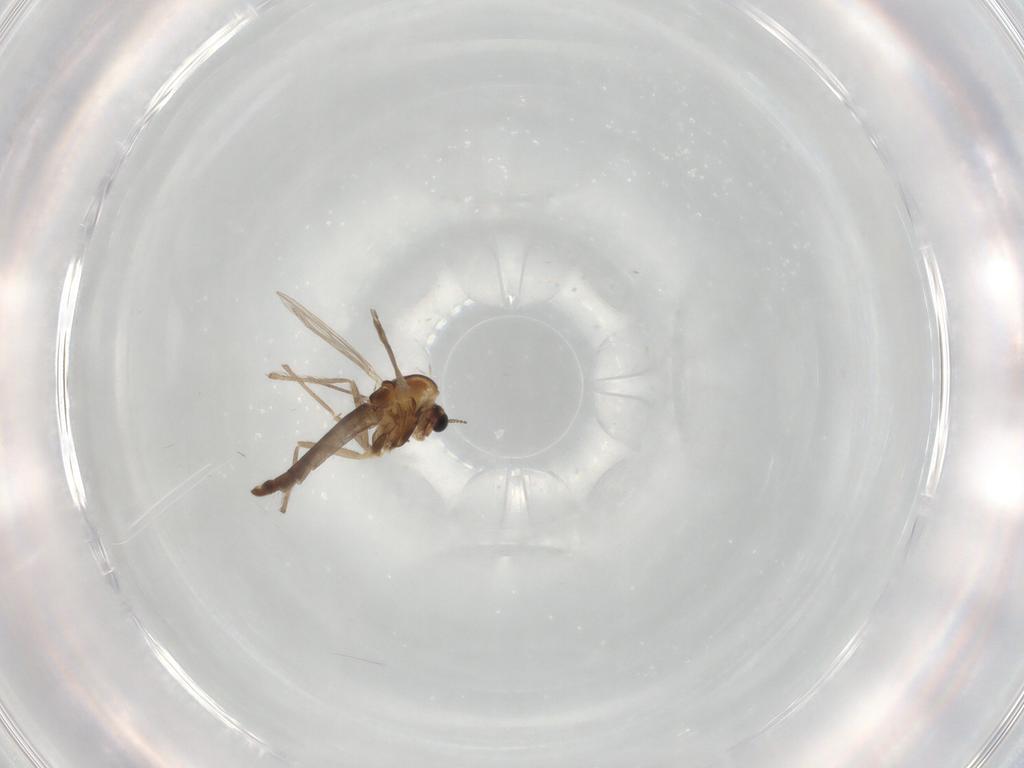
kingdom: Animalia
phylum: Arthropoda
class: Insecta
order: Diptera
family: Chironomidae
